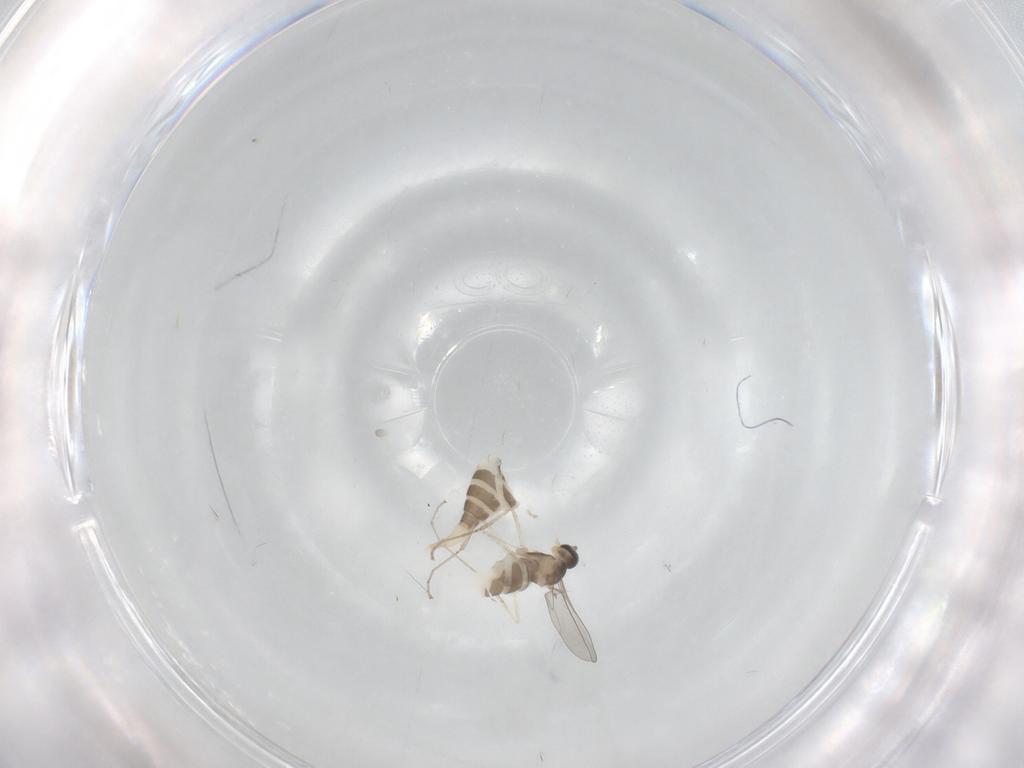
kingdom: Animalia
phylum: Arthropoda
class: Insecta
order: Diptera
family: Cecidomyiidae
